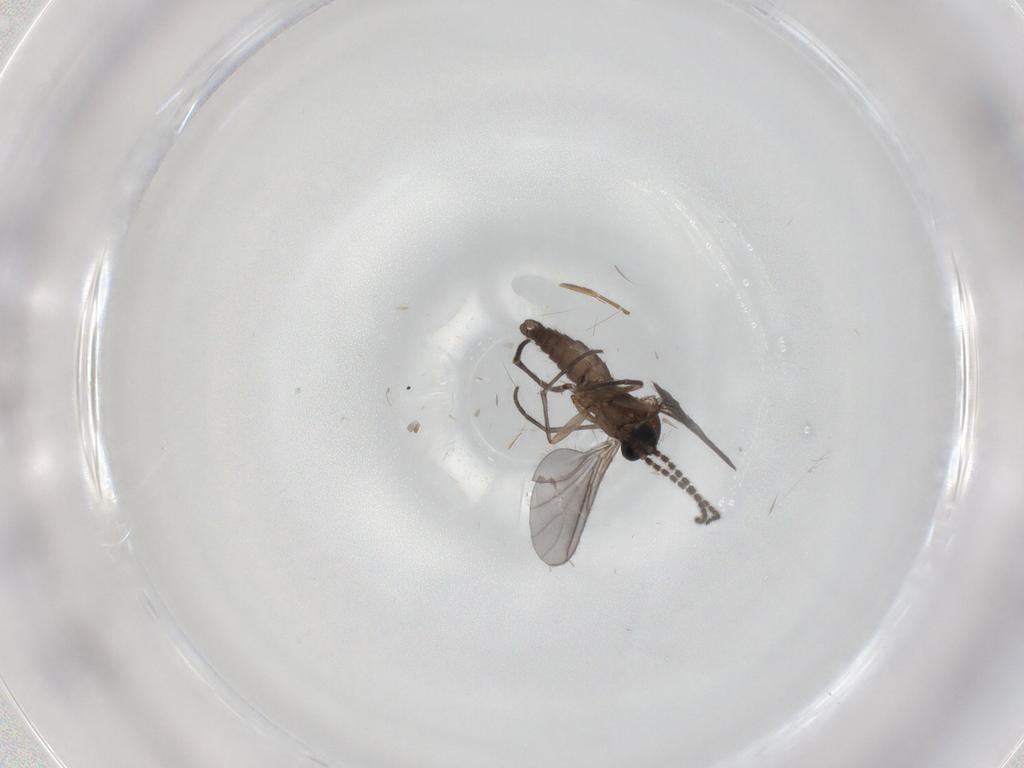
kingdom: Animalia
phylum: Arthropoda
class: Insecta
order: Diptera
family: Sciaridae
